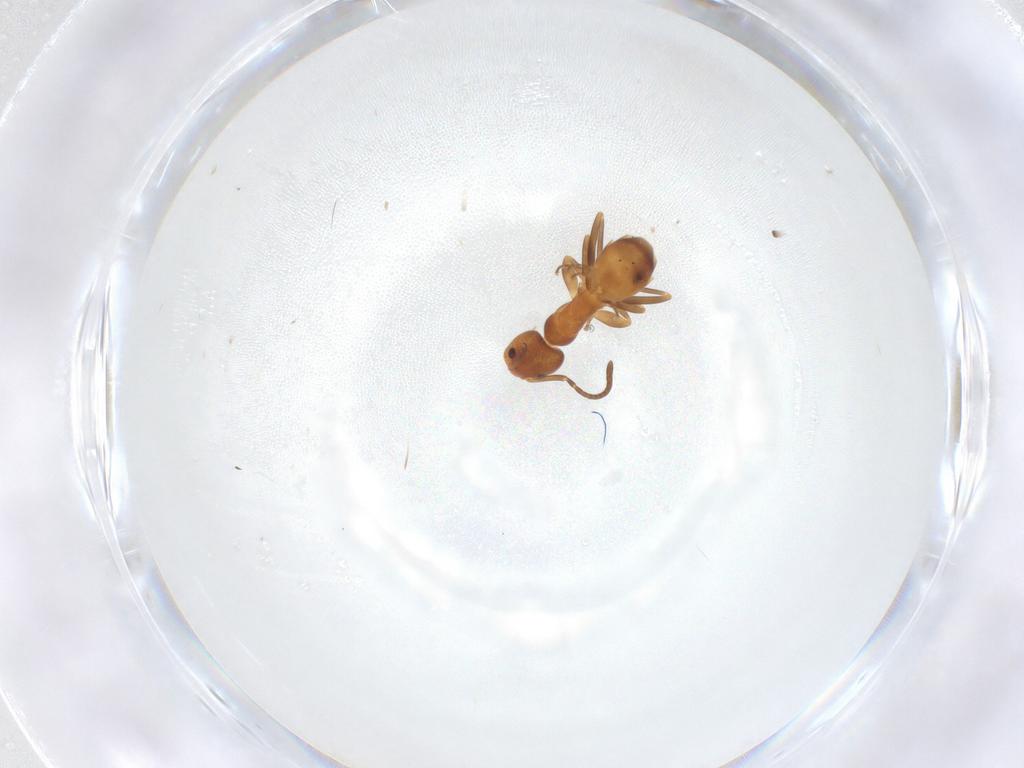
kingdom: Animalia
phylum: Arthropoda
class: Insecta
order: Hymenoptera
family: Formicidae
